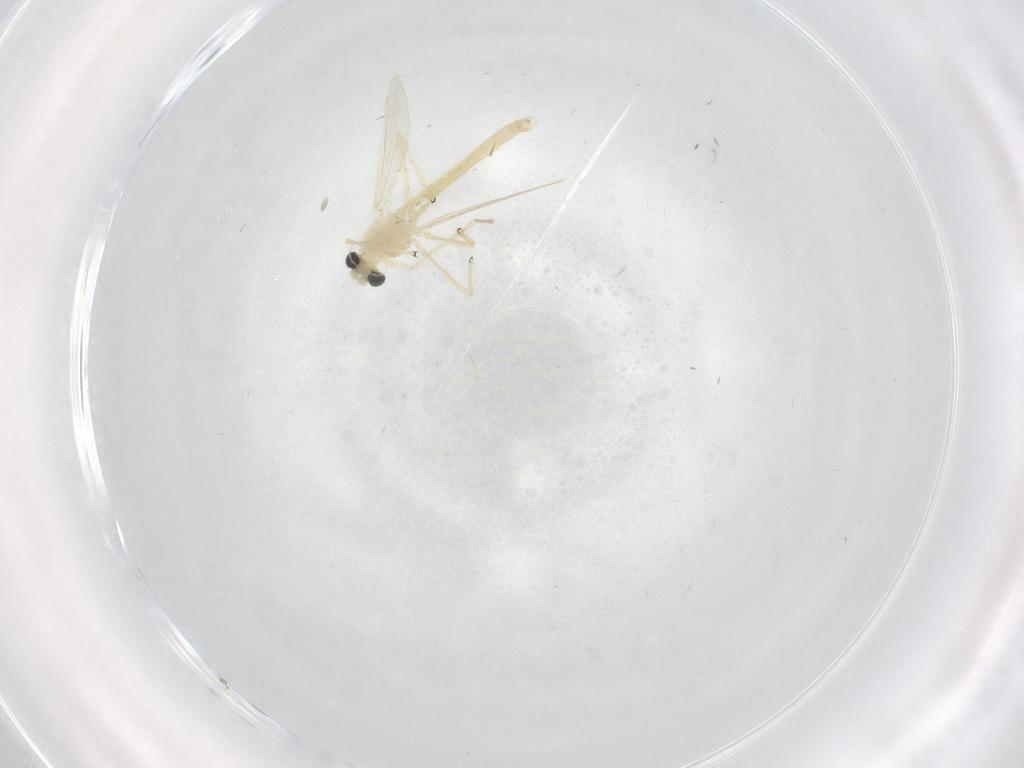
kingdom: Animalia
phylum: Arthropoda
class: Insecta
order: Diptera
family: Chironomidae
